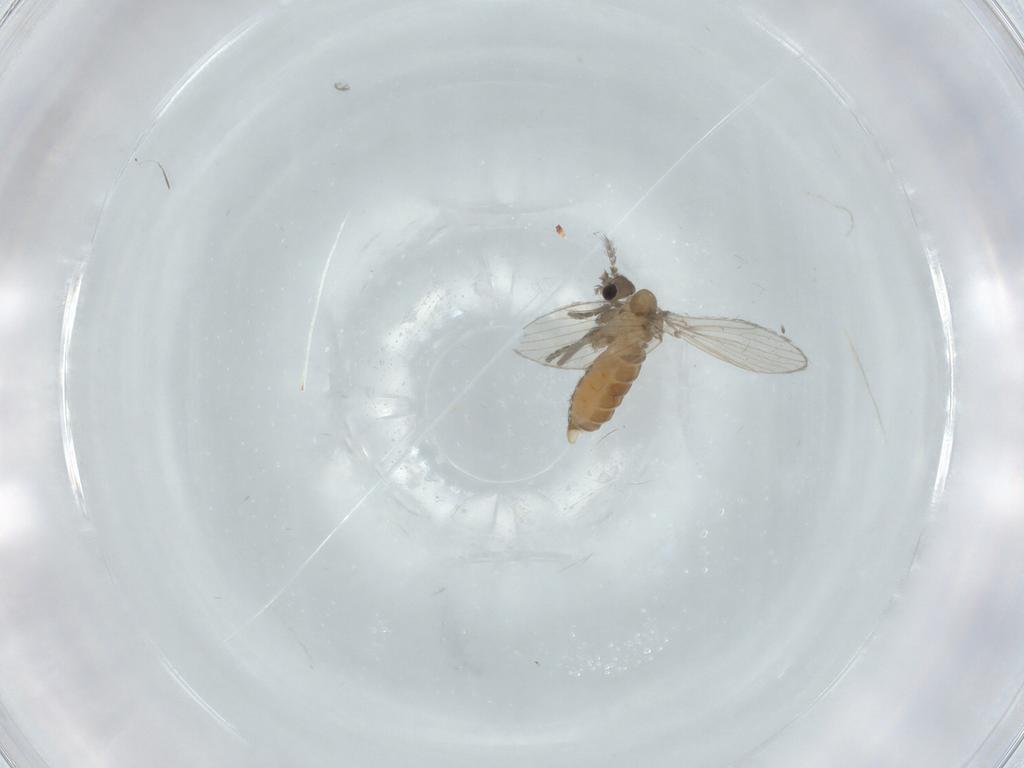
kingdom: Animalia
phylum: Arthropoda
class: Insecta
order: Diptera
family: Psychodidae
